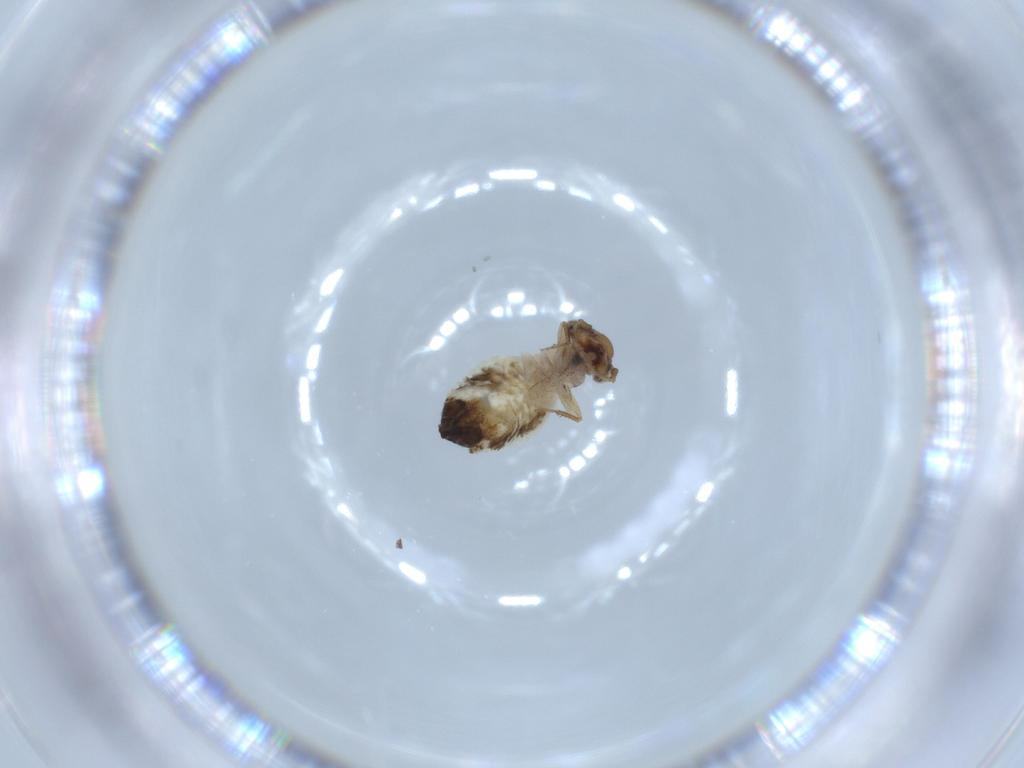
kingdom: Animalia
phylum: Arthropoda
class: Insecta
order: Psocodea
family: Lepidopsocidae
